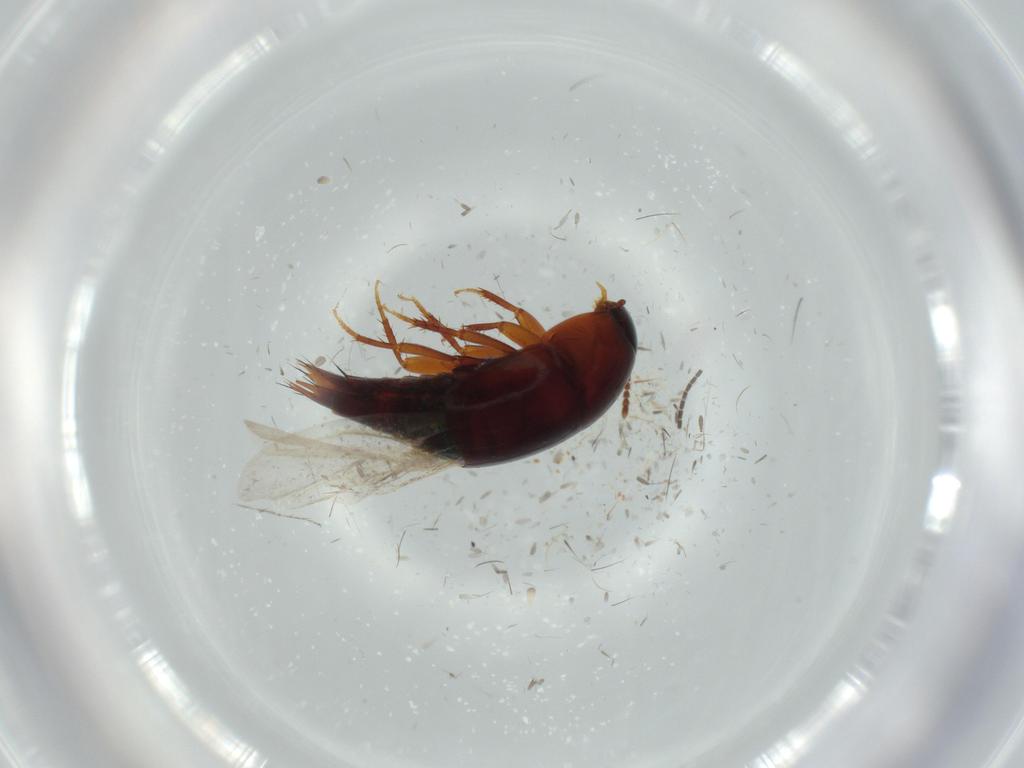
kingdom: Animalia
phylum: Arthropoda
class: Insecta
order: Coleoptera
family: Staphylinidae
